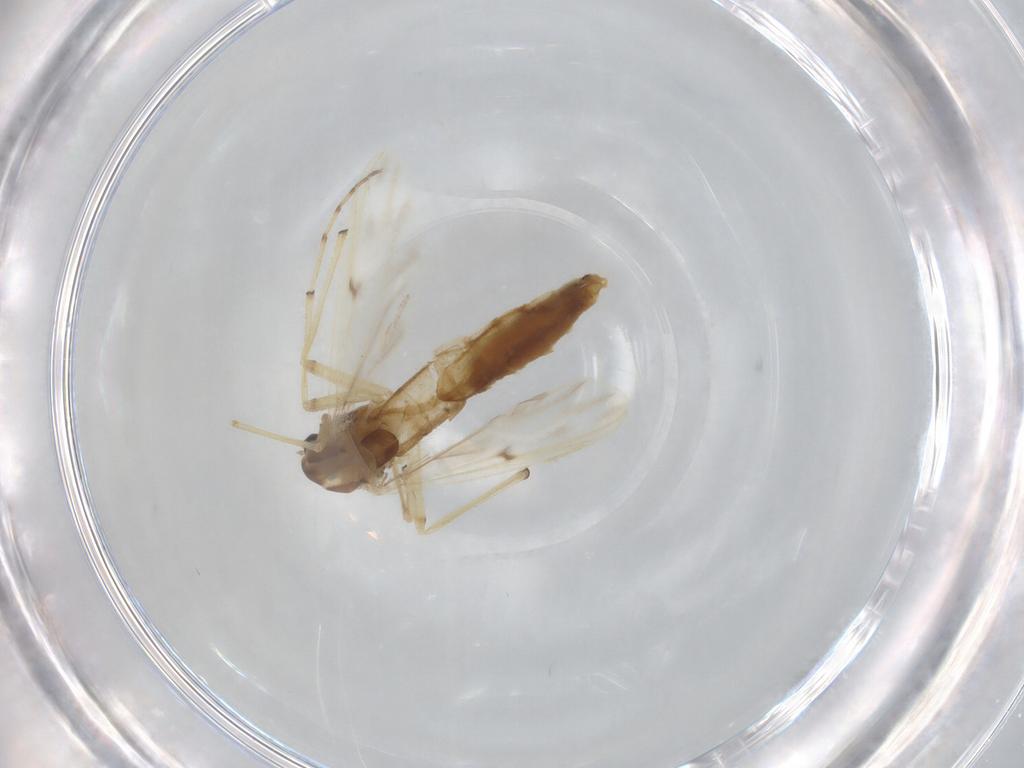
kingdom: Animalia
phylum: Arthropoda
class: Insecta
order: Diptera
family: Chironomidae
